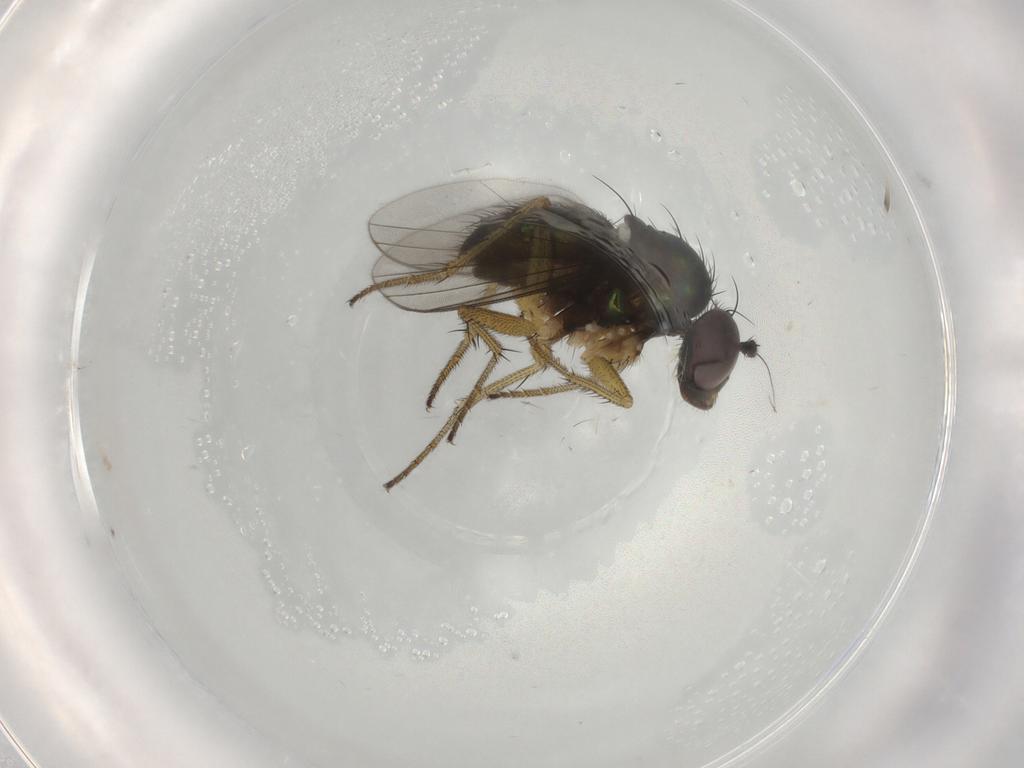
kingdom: Animalia
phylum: Arthropoda
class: Insecta
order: Diptera
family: Dolichopodidae
